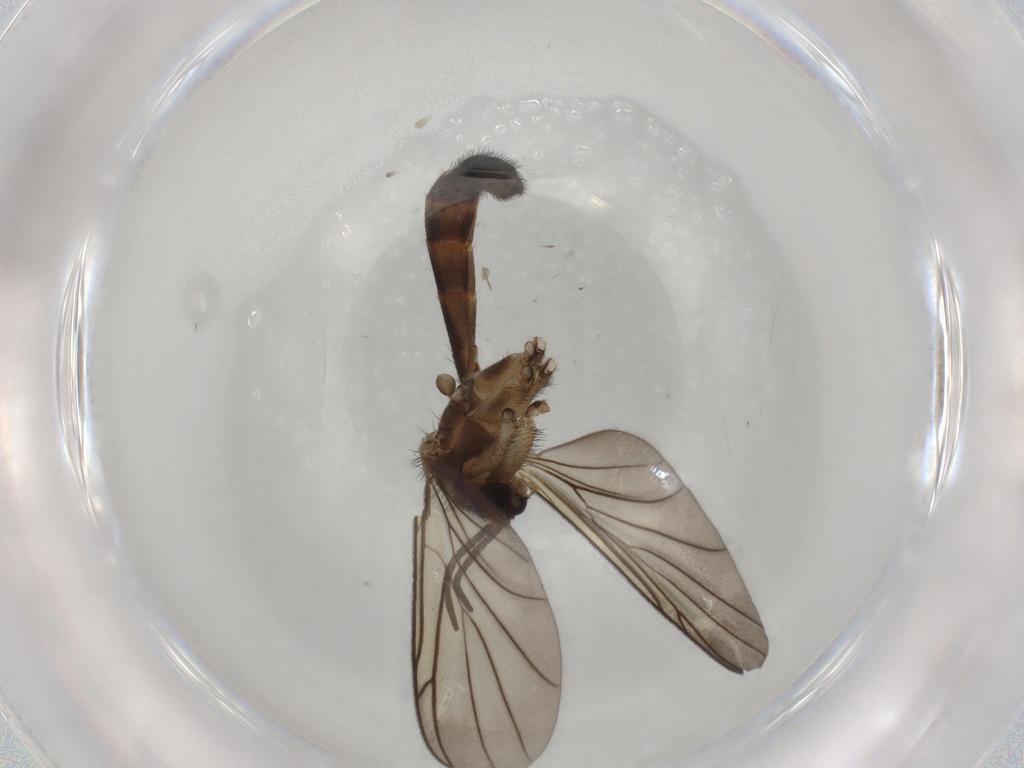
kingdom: Animalia
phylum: Arthropoda
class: Insecta
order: Diptera
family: Keroplatidae
